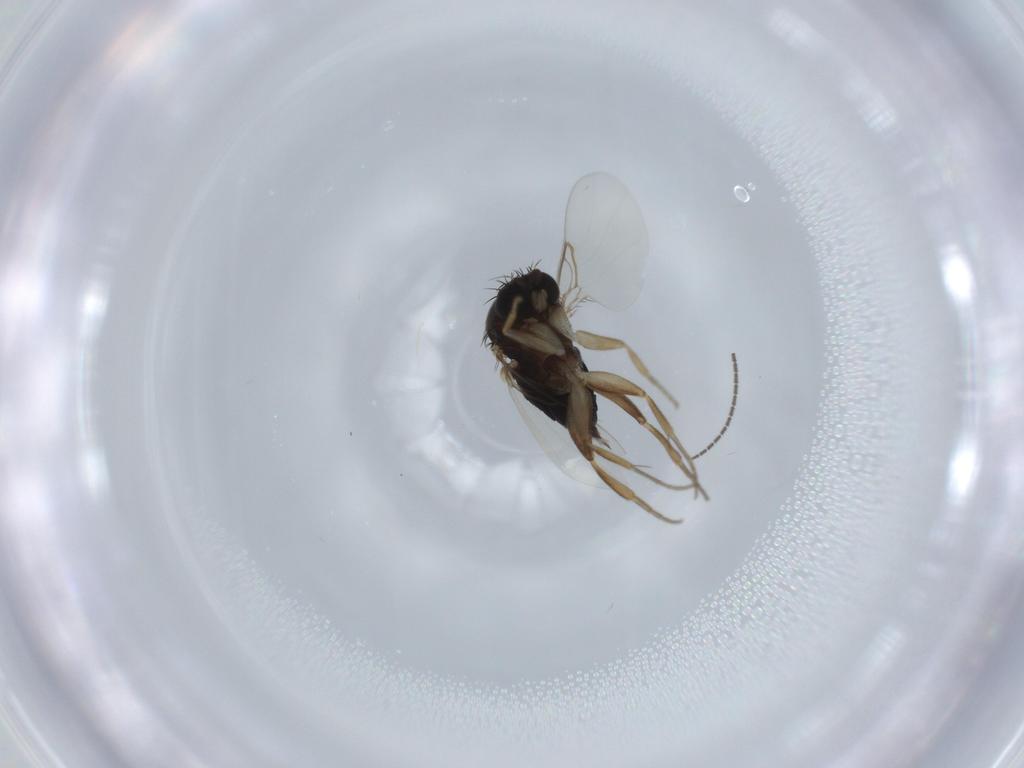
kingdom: Animalia
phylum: Arthropoda
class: Insecta
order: Diptera
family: Phoridae
